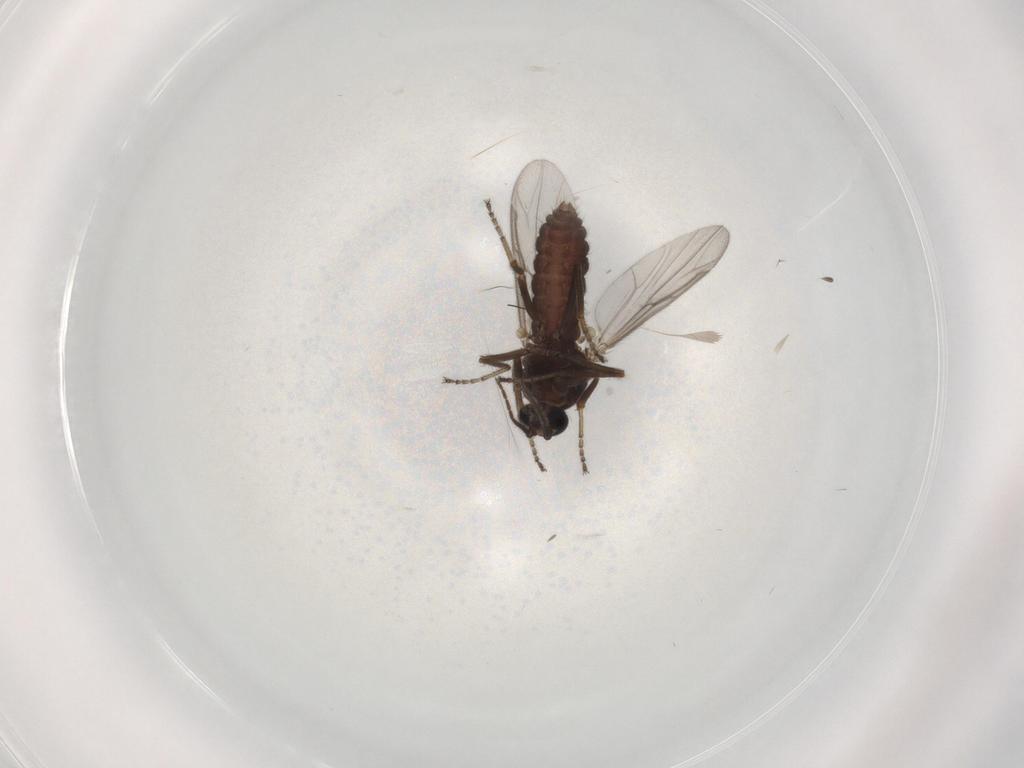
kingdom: Animalia
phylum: Arthropoda
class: Insecta
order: Diptera
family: Ceratopogonidae
